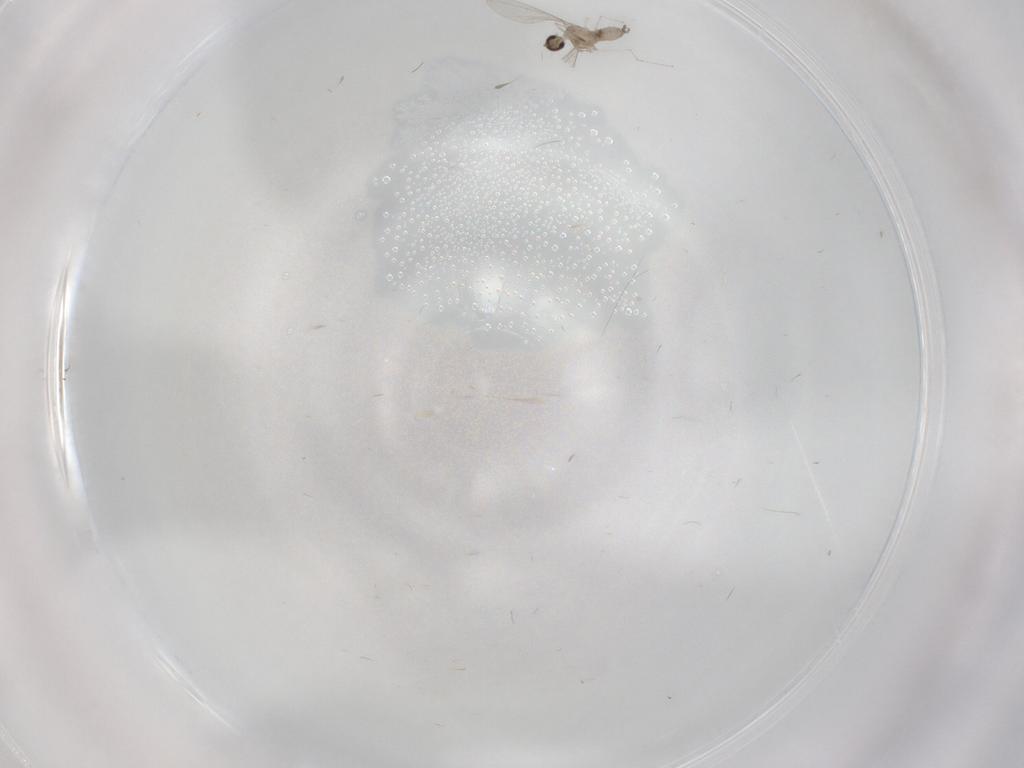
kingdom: Animalia
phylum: Arthropoda
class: Insecta
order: Diptera
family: Cecidomyiidae
